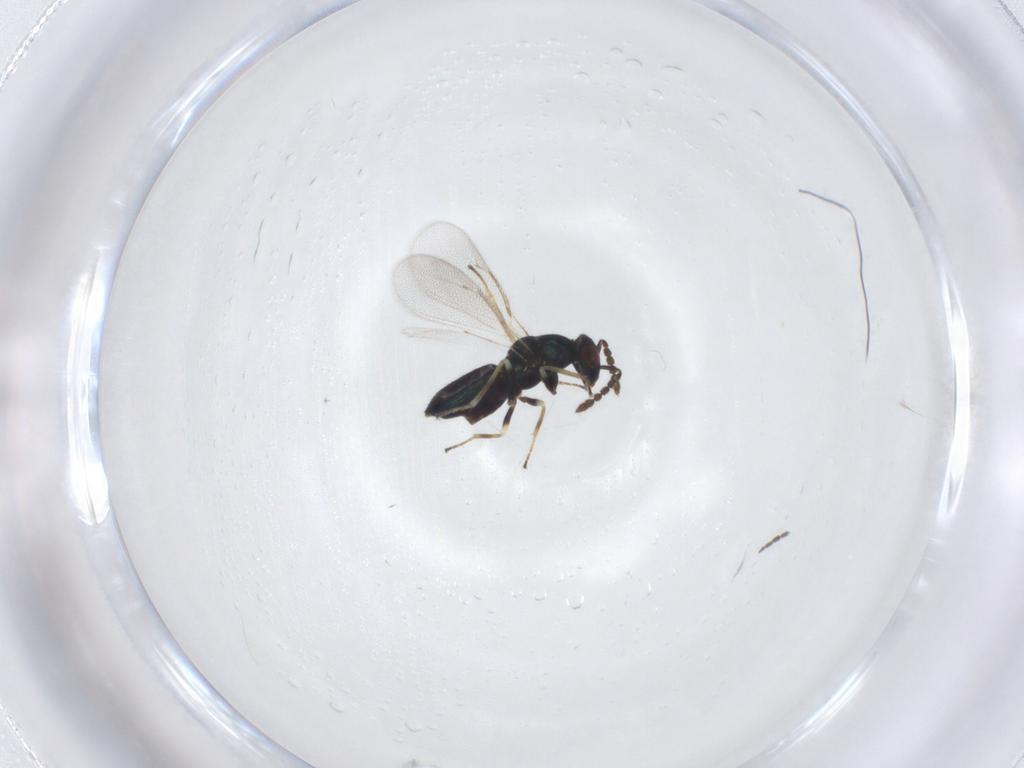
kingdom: Animalia
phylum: Arthropoda
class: Insecta
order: Hymenoptera
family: Eulophidae
